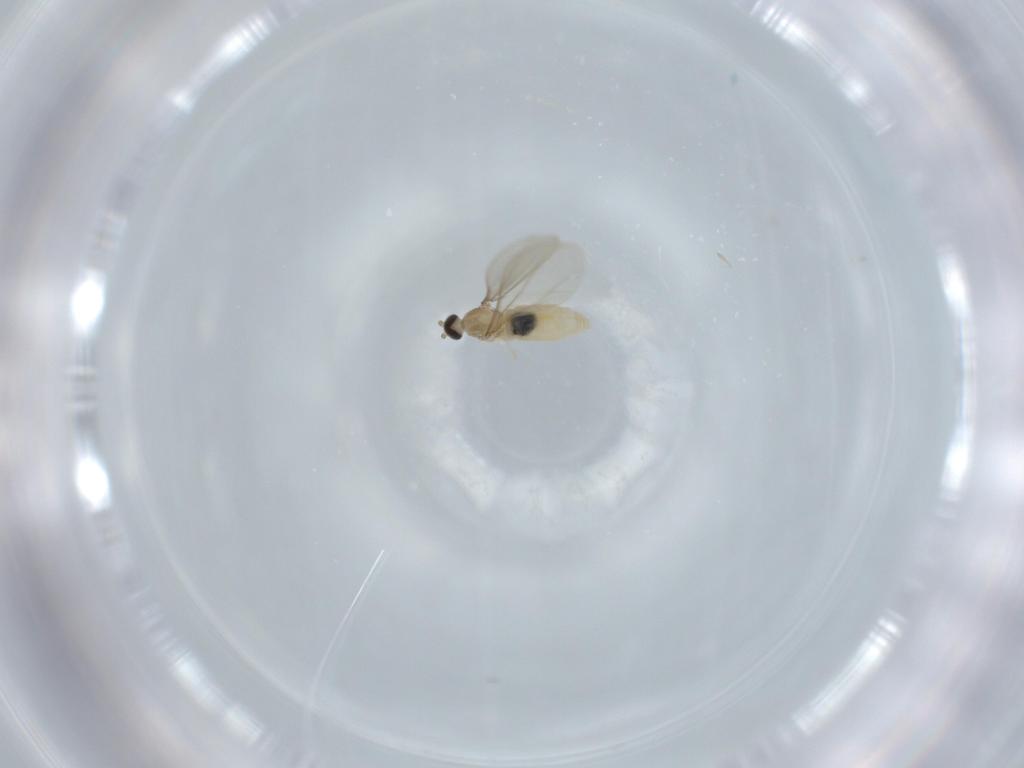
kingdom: Animalia
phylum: Arthropoda
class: Insecta
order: Diptera
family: Cecidomyiidae
